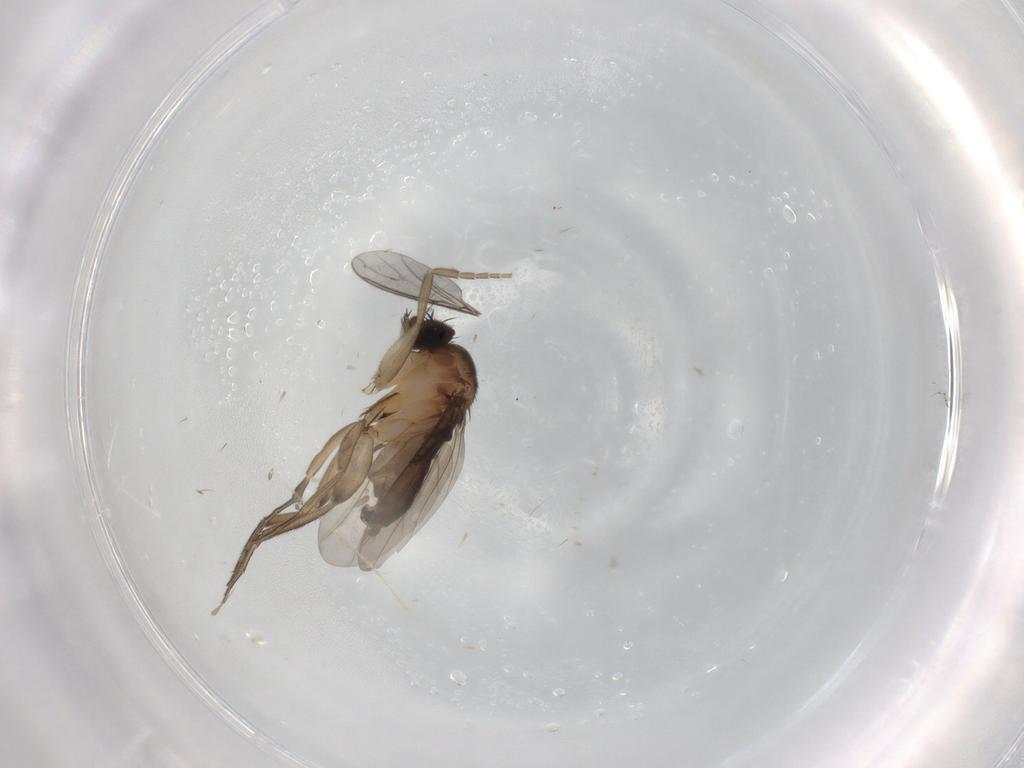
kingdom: Animalia
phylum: Arthropoda
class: Insecta
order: Diptera
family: Phoridae
